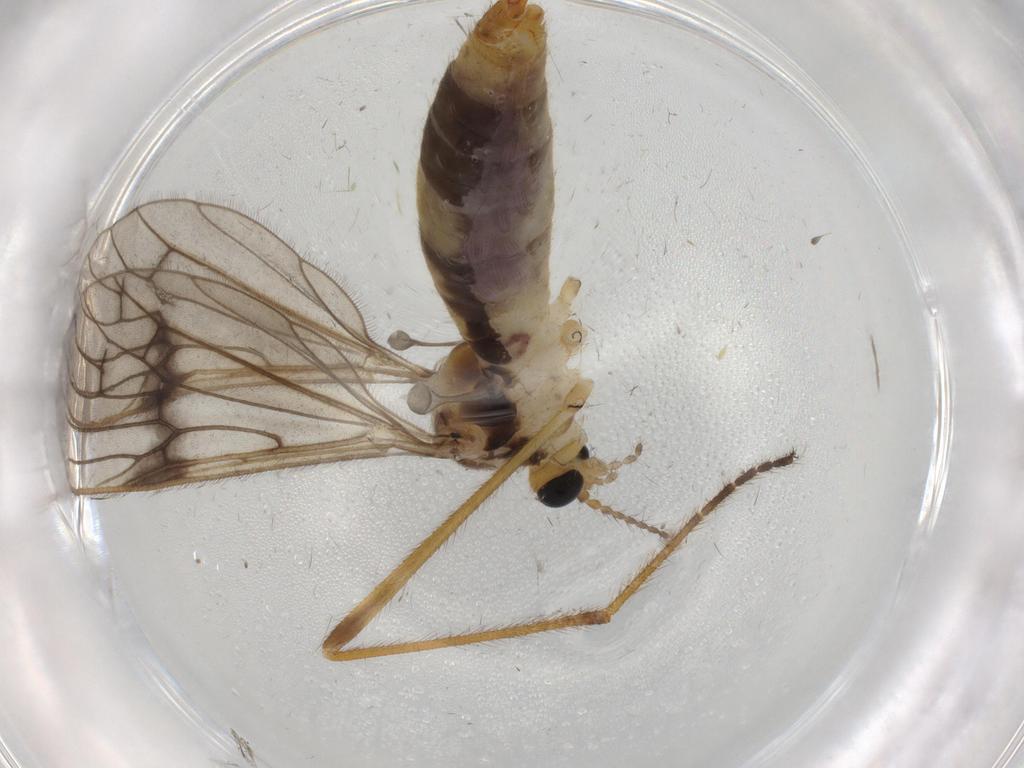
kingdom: Animalia
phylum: Arthropoda
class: Insecta
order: Diptera
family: Limoniidae
